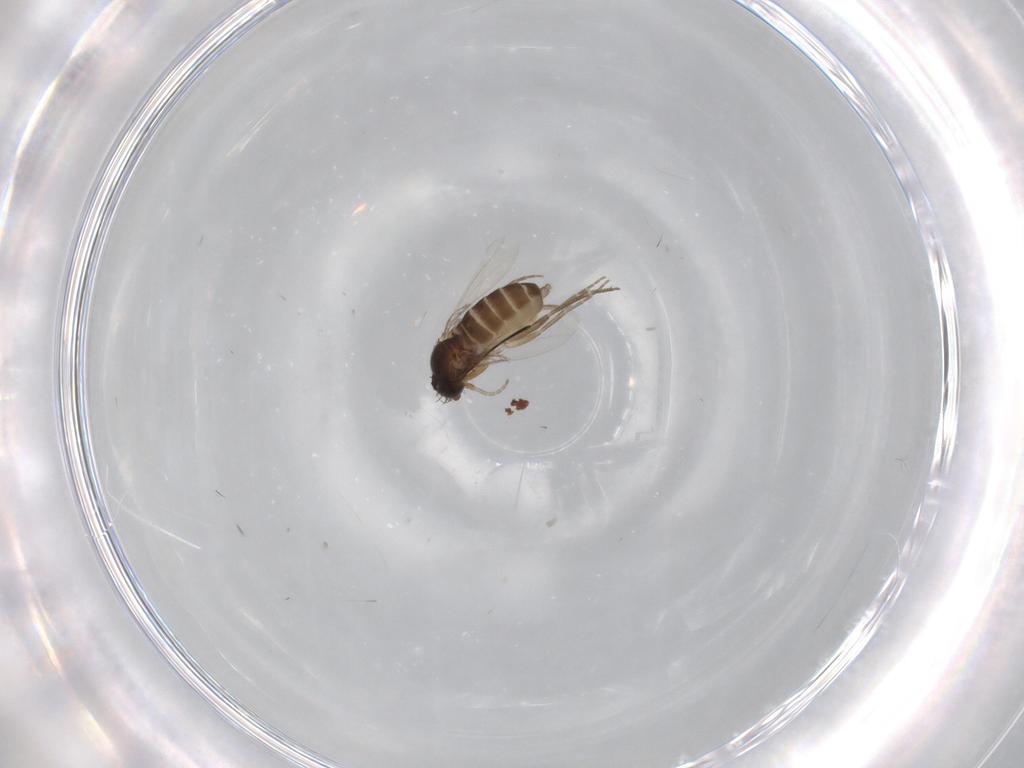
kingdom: Animalia
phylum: Arthropoda
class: Insecta
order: Diptera
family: Phoridae
